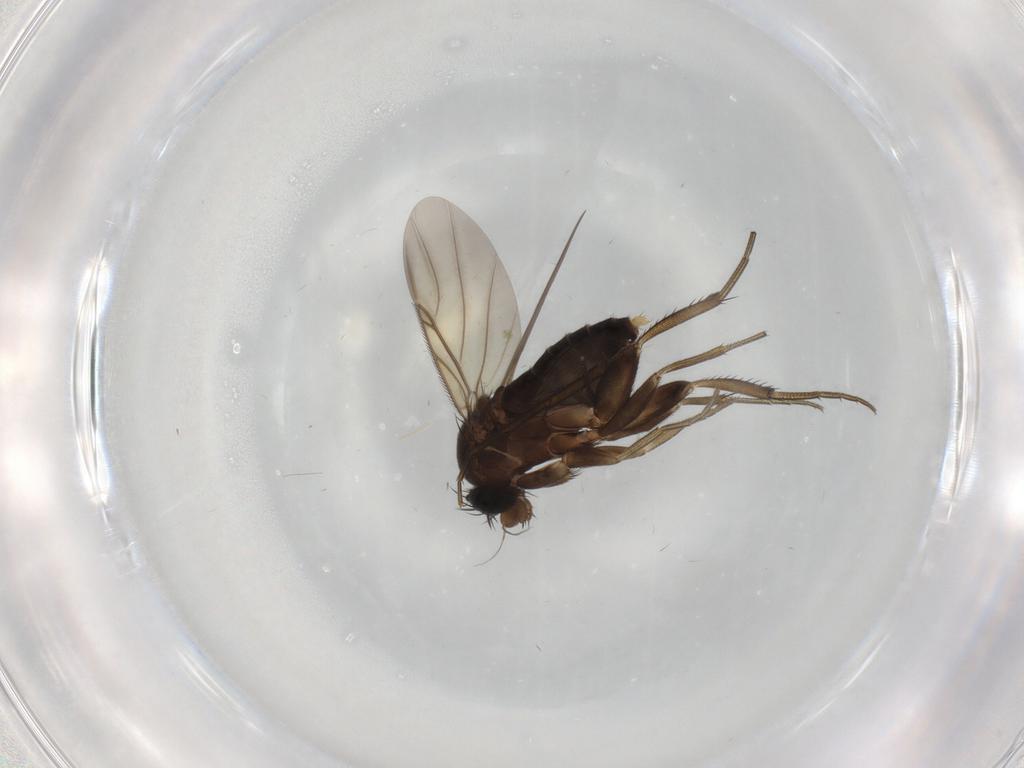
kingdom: Animalia
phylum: Arthropoda
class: Insecta
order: Diptera
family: Phoridae
